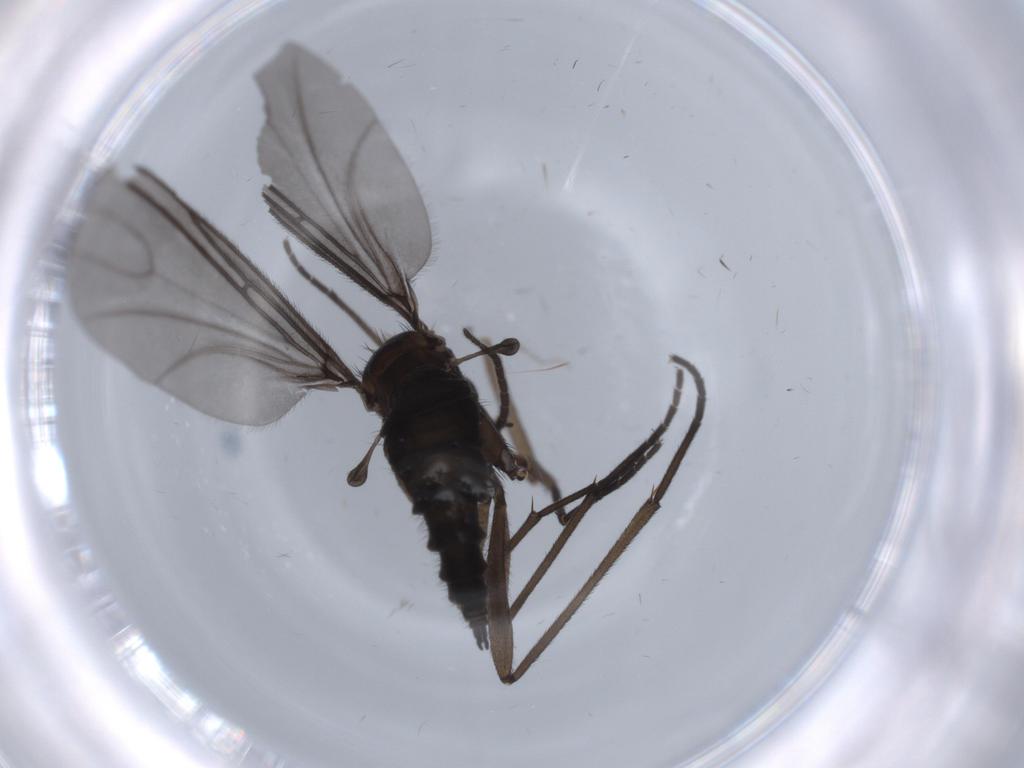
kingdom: Animalia
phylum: Arthropoda
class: Insecta
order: Diptera
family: Sciaridae
